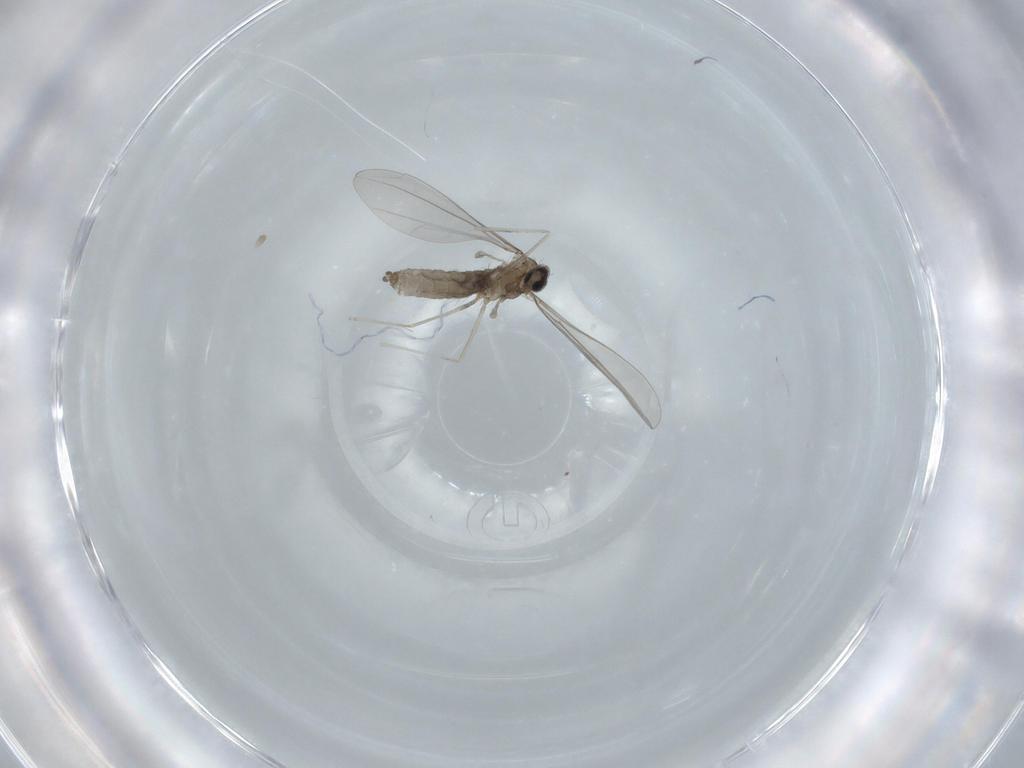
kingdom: Animalia
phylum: Arthropoda
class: Insecta
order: Diptera
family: Cecidomyiidae
